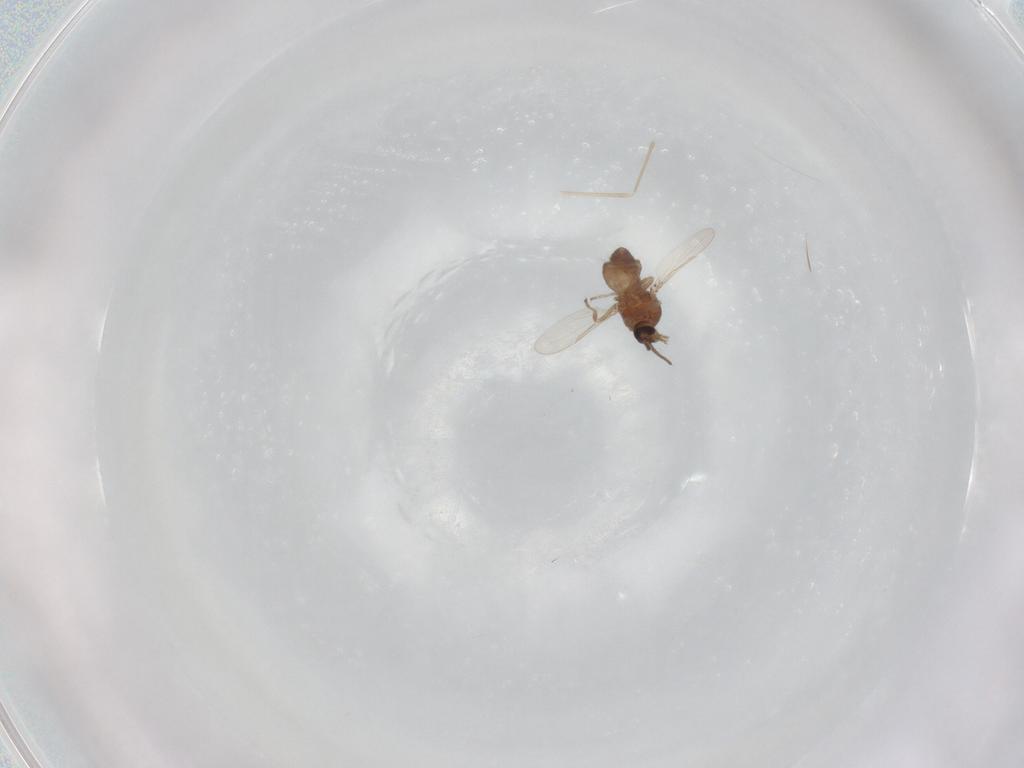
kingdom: Animalia
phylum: Arthropoda
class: Insecta
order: Diptera
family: Ceratopogonidae
